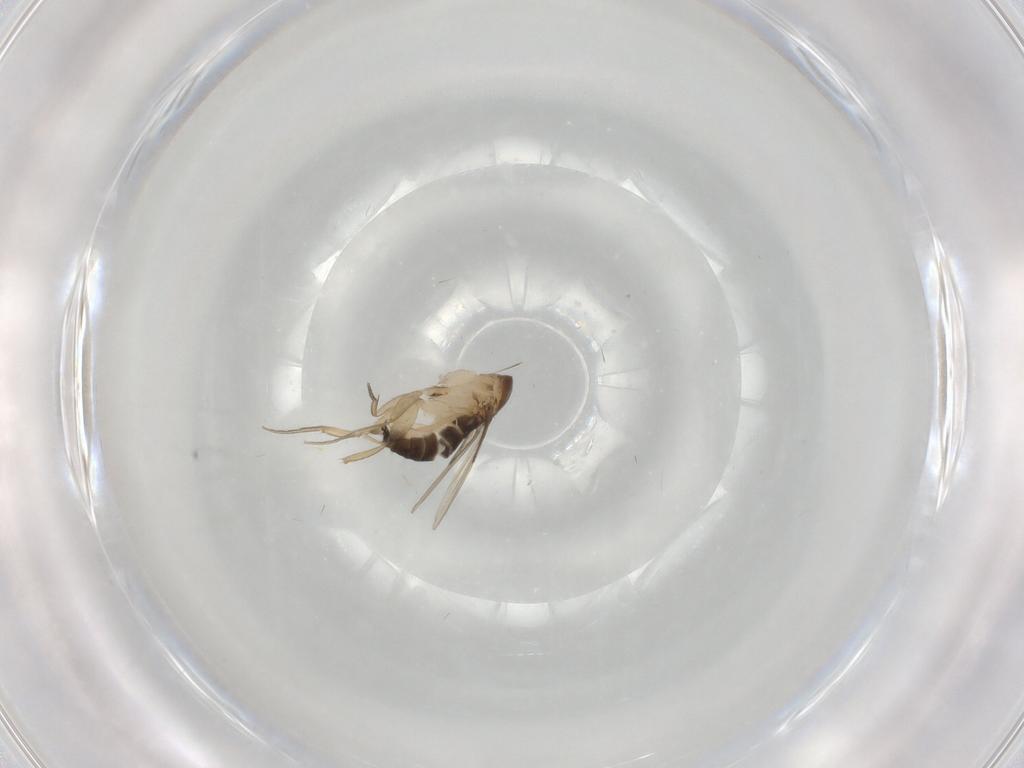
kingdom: Animalia
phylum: Arthropoda
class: Insecta
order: Diptera
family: Phoridae
